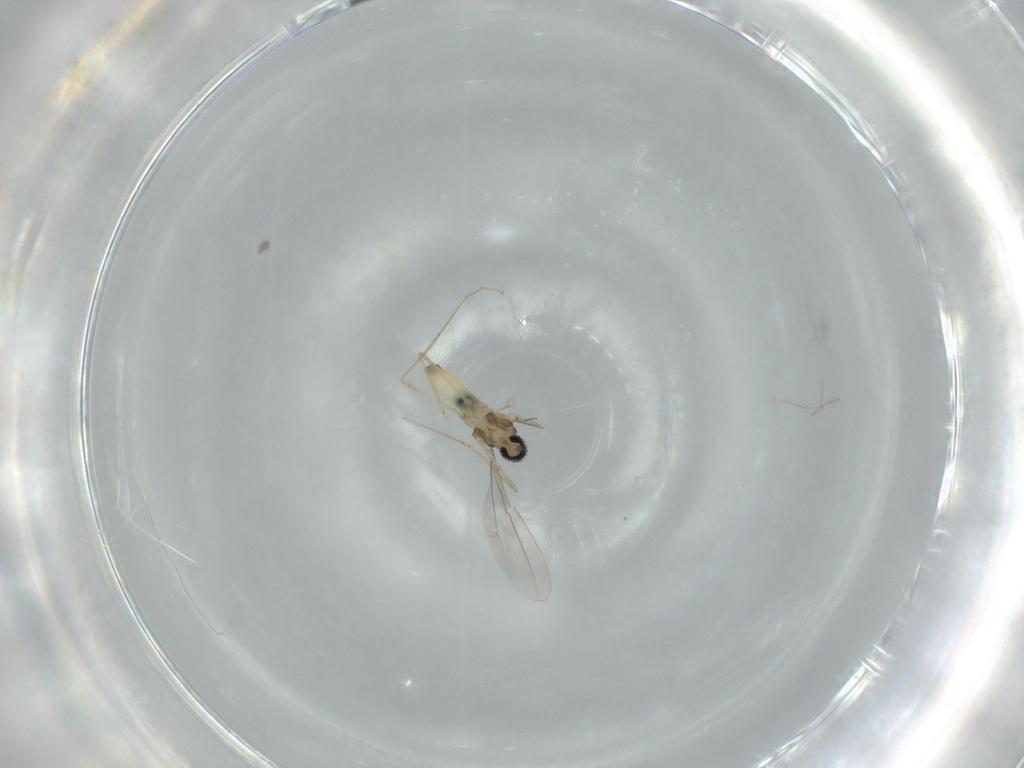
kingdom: Animalia
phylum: Arthropoda
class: Insecta
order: Diptera
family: Cecidomyiidae
